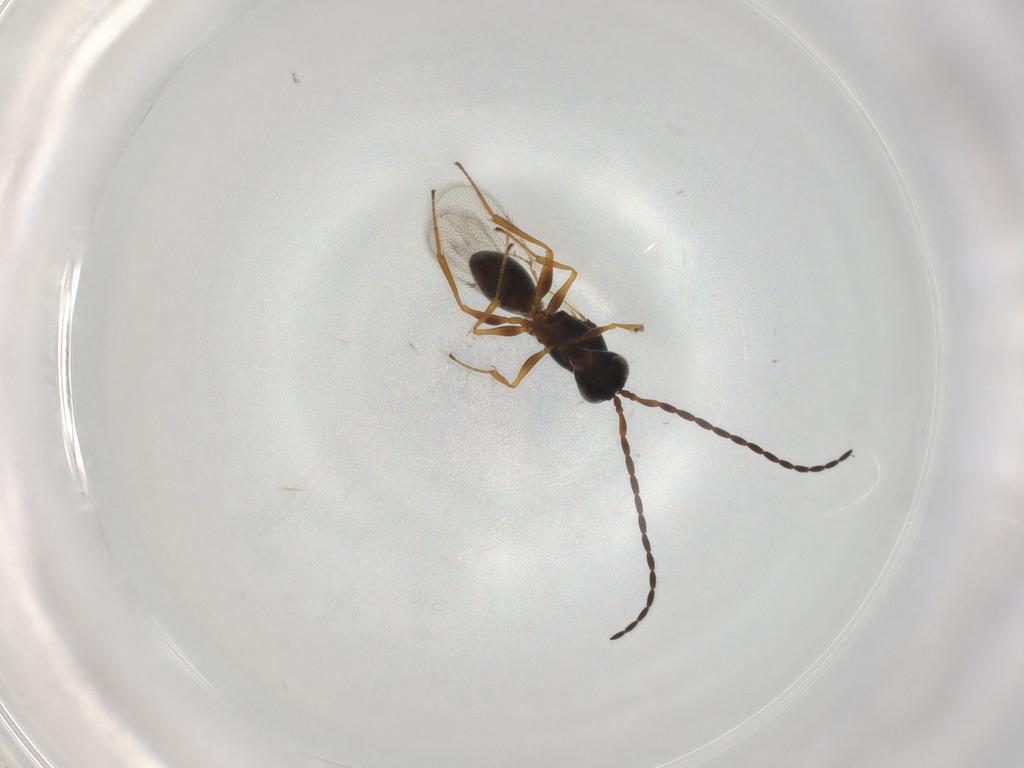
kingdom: Animalia
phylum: Arthropoda
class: Insecta
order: Hymenoptera
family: Figitidae
